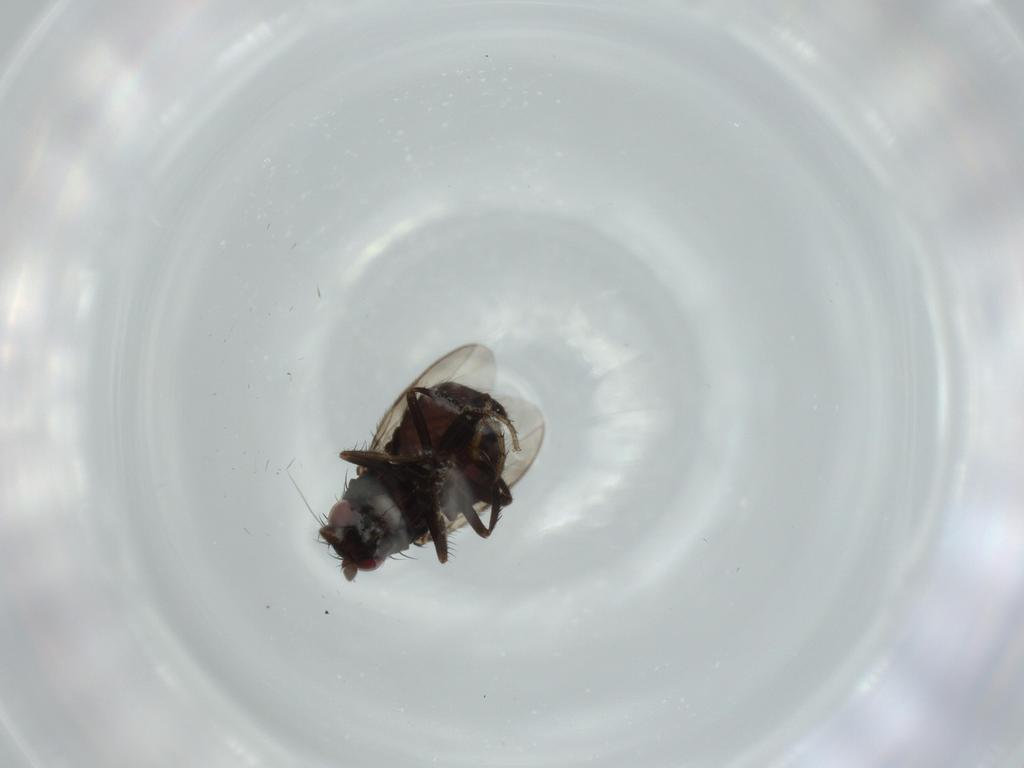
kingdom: Animalia
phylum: Arthropoda
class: Insecta
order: Diptera
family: Sphaeroceridae
